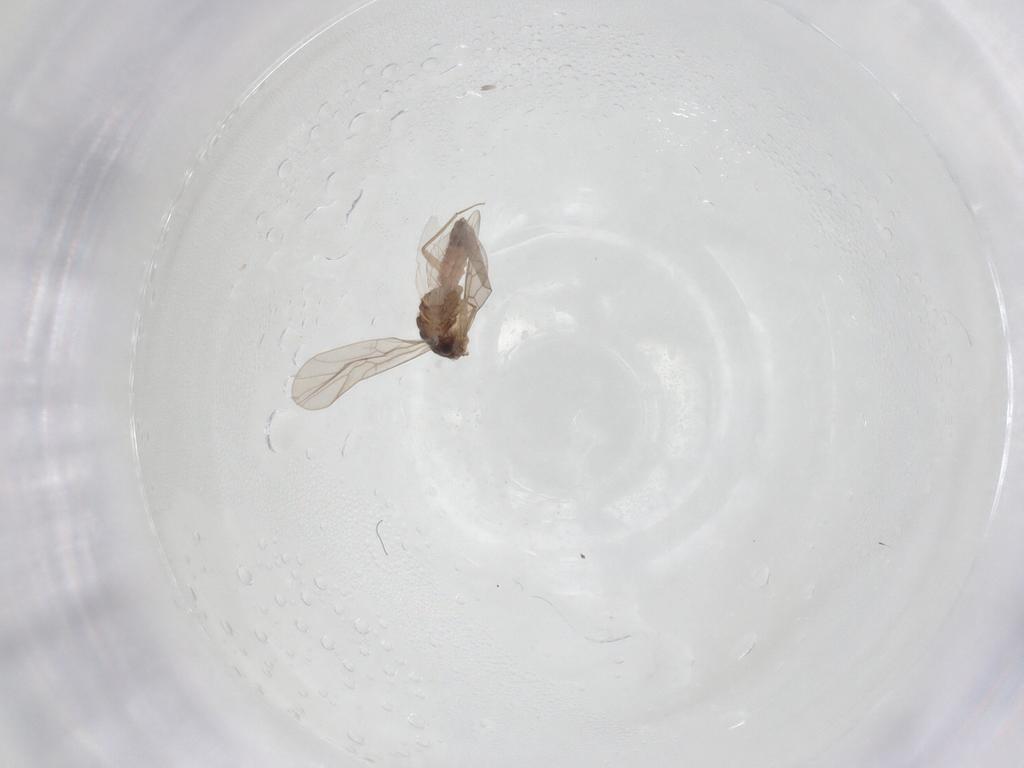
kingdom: Animalia
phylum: Arthropoda
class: Insecta
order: Psocodea
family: Lepidopsocidae
